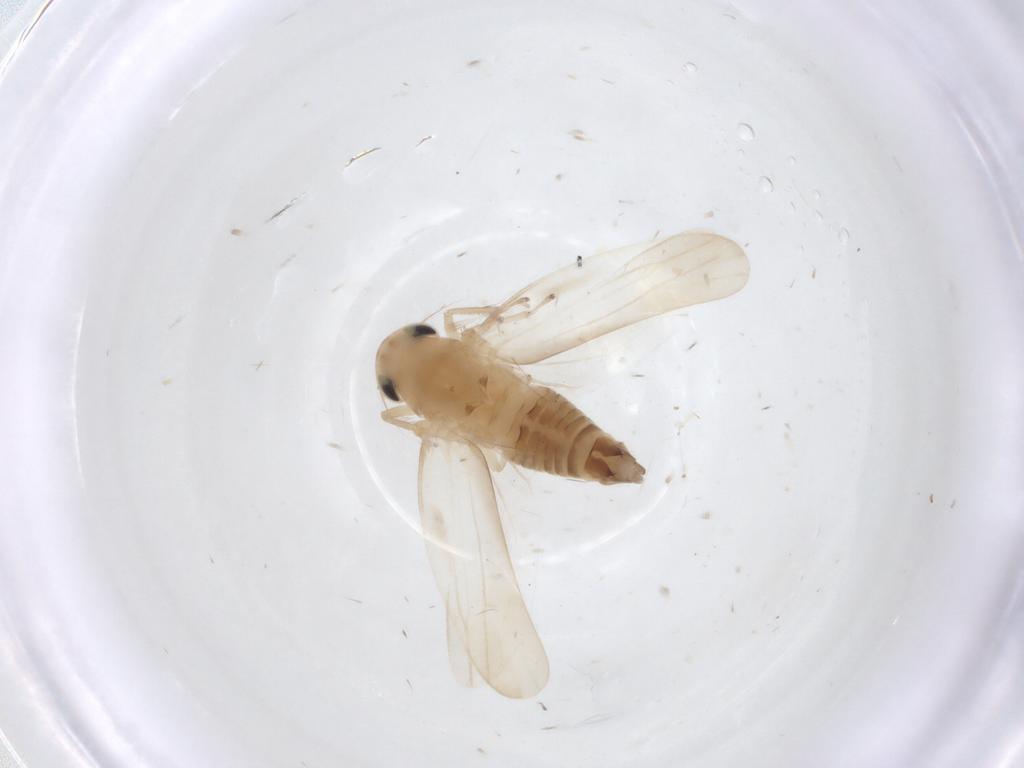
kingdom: Animalia
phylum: Arthropoda
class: Insecta
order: Hemiptera
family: Cicadellidae
